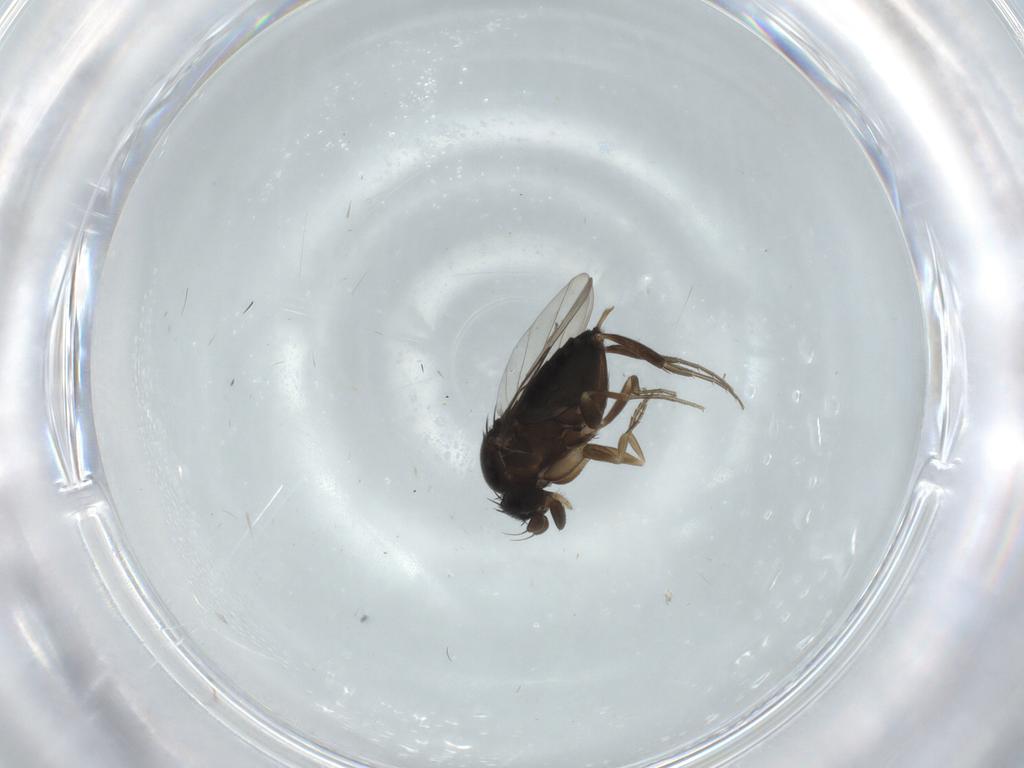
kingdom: Animalia
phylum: Arthropoda
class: Insecta
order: Diptera
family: Phoridae
